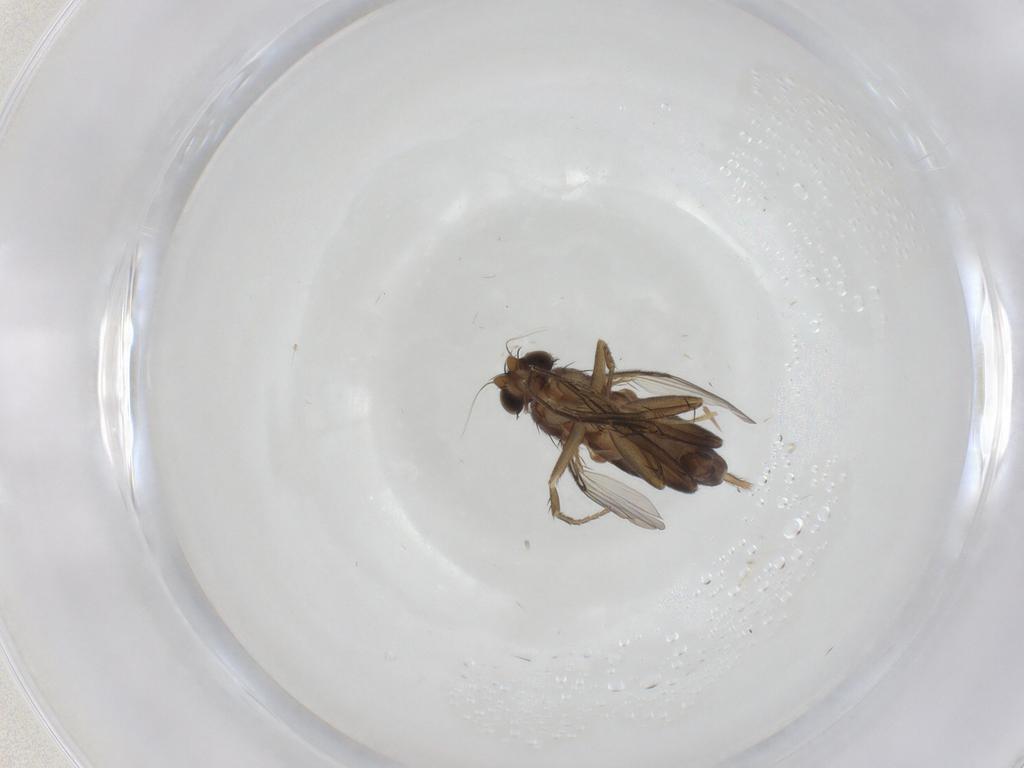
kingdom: Animalia
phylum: Arthropoda
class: Insecta
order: Diptera
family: Phoridae
